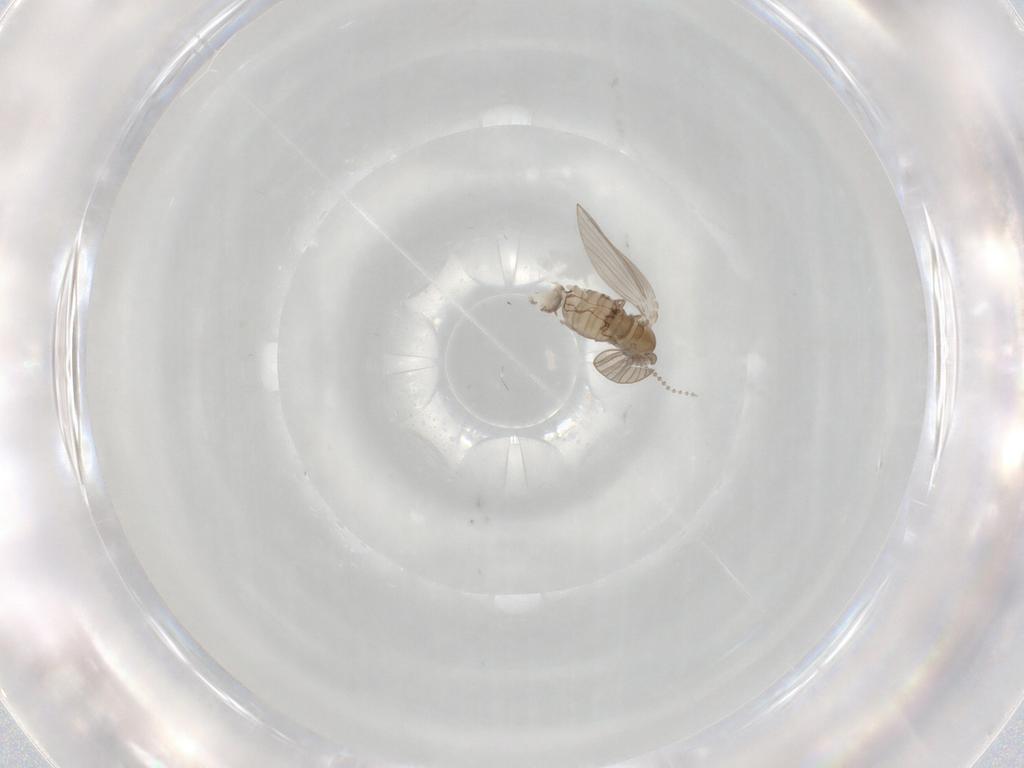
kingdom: Animalia
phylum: Arthropoda
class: Insecta
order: Diptera
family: Psychodidae
